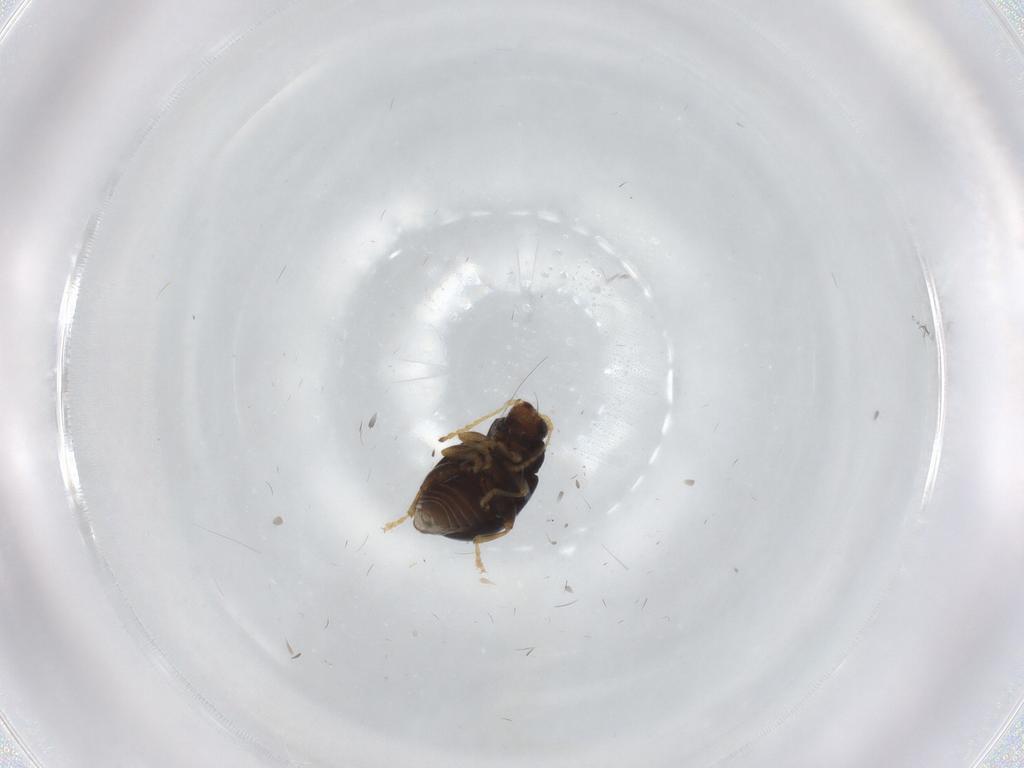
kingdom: Animalia
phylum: Arthropoda
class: Insecta
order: Coleoptera
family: Chrysomelidae
